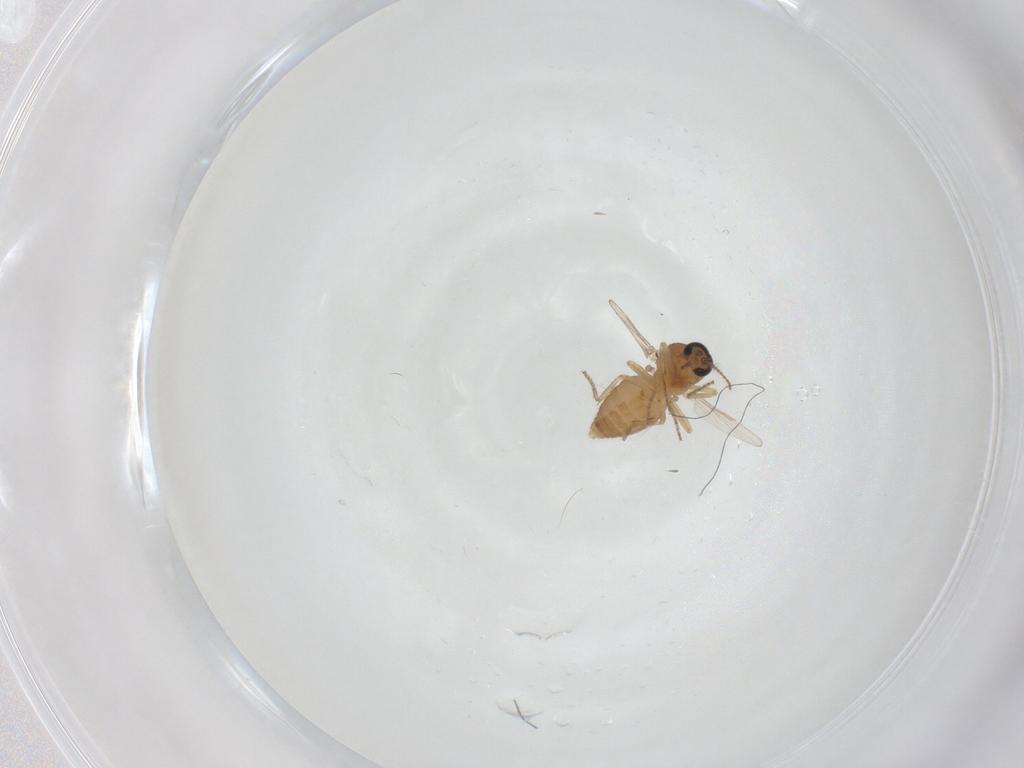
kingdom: Animalia
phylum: Arthropoda
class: Insecta
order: Diptera
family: Ceratopogonidae
